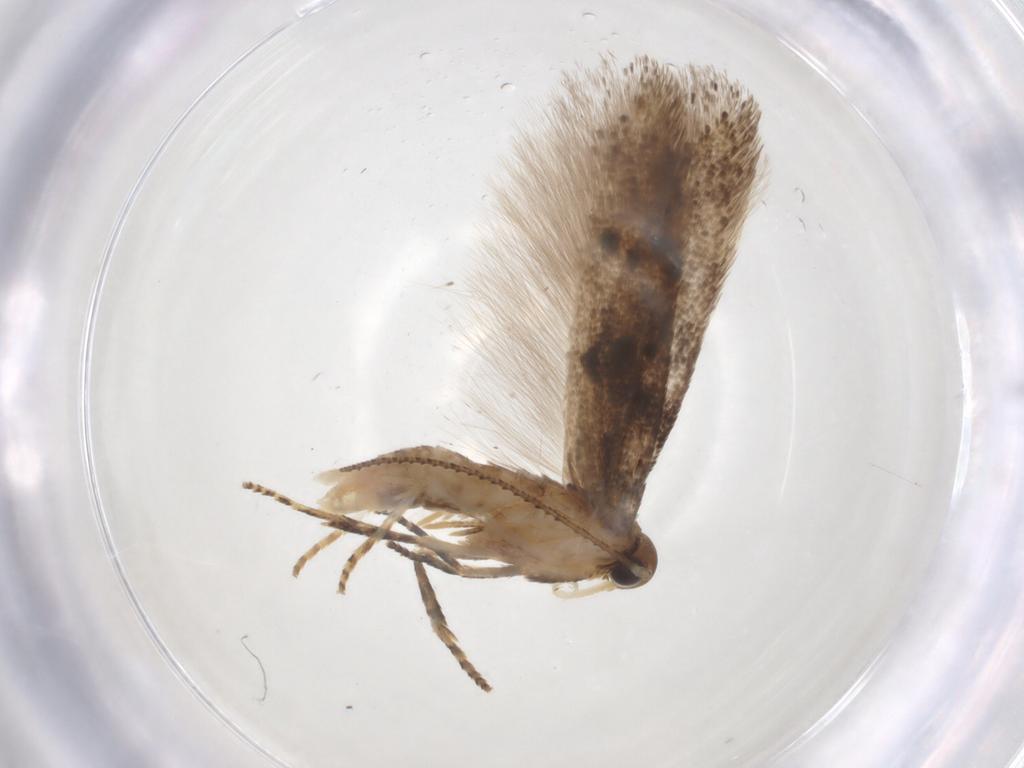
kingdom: Animalia
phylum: Arthropoda
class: Insecta
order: Lepidoptera
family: Gelechiidae
